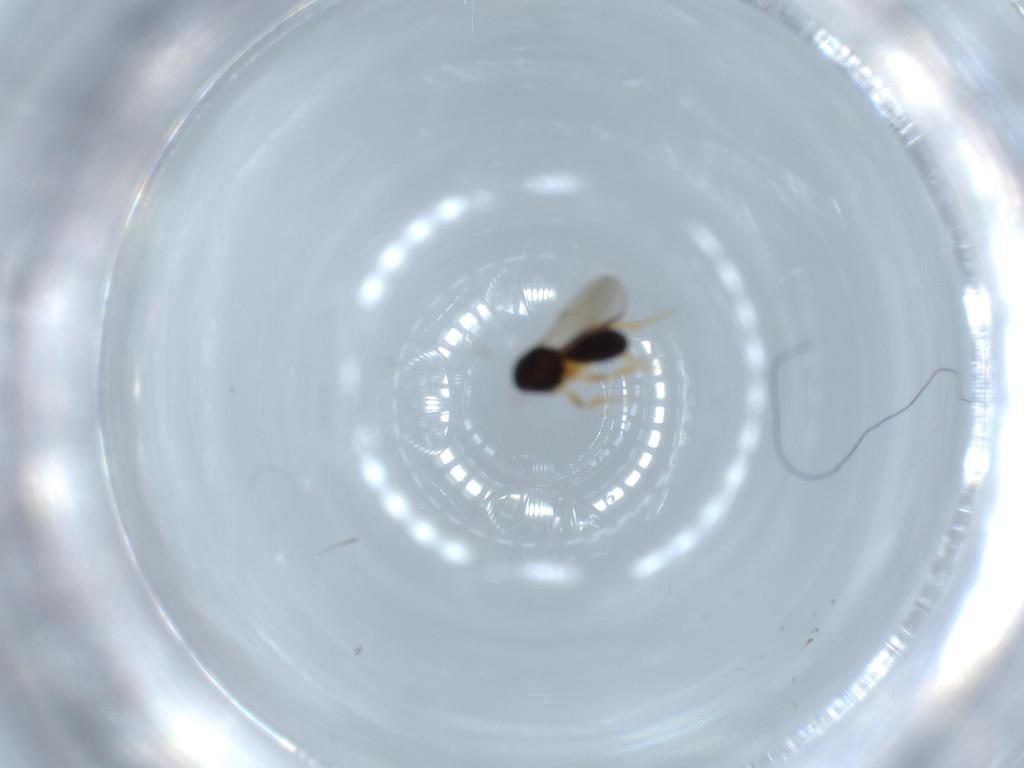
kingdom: Animalia
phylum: Arthropoda
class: Insecta
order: Hymenoptera
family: Scelionidae
